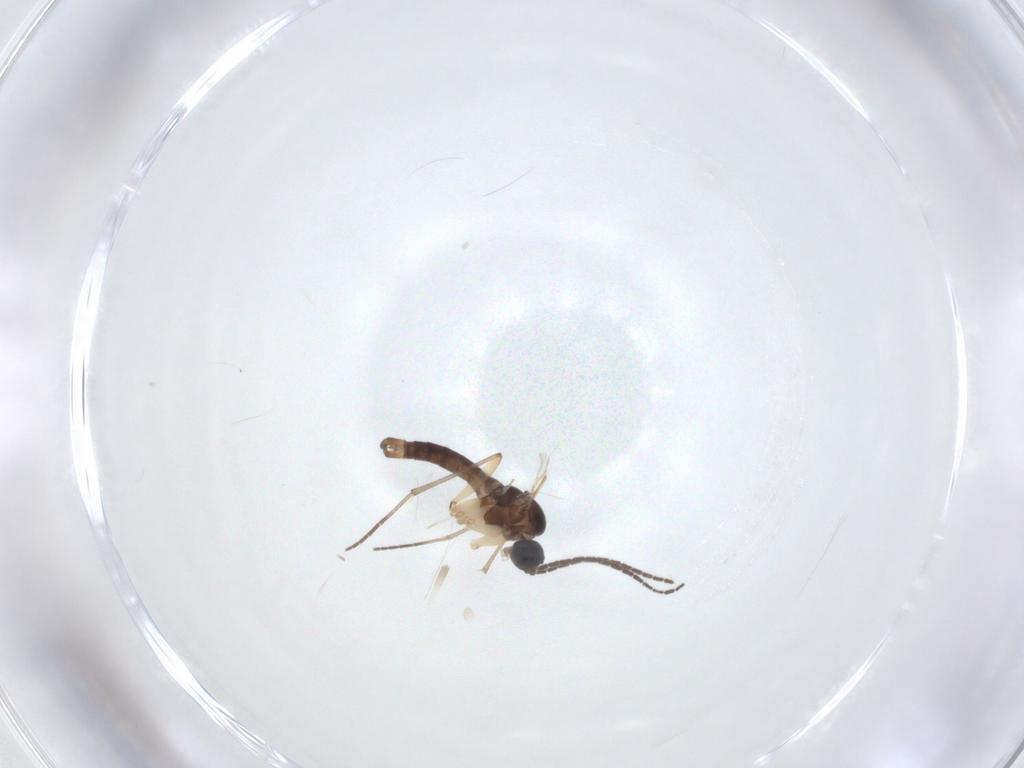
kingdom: Animalia
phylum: Arthropoda
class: Insecta
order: Diptera
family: Sciaridae
